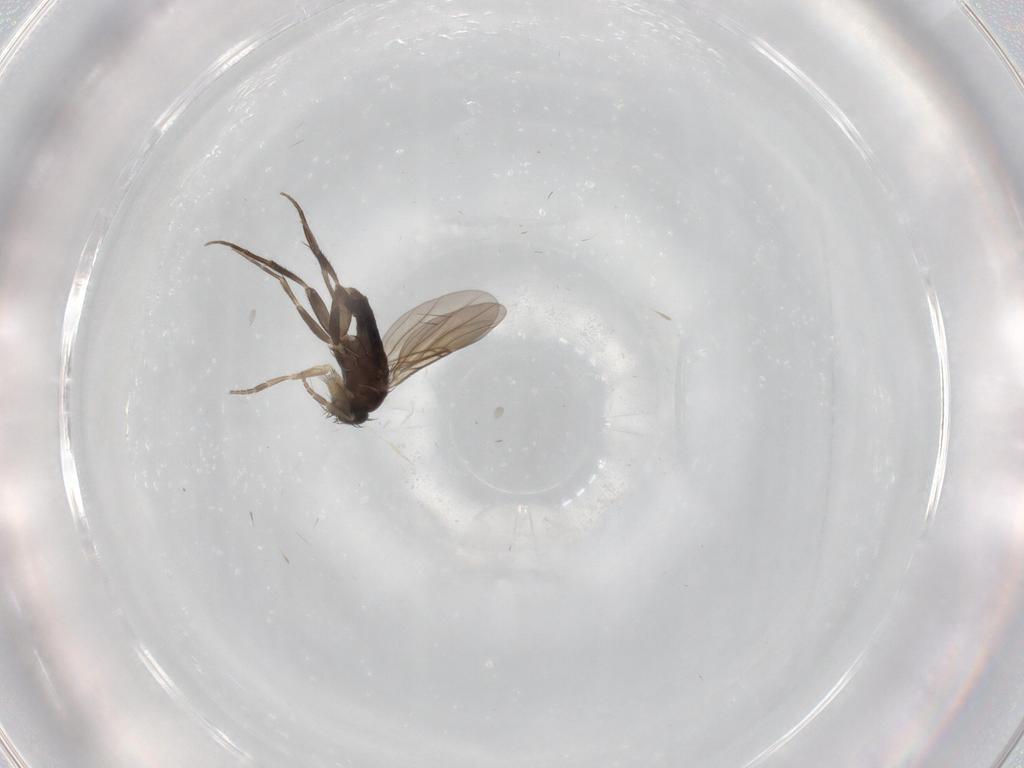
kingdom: Animalia
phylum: Arthropoda
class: Insecta
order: Diptera
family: Phoridae
